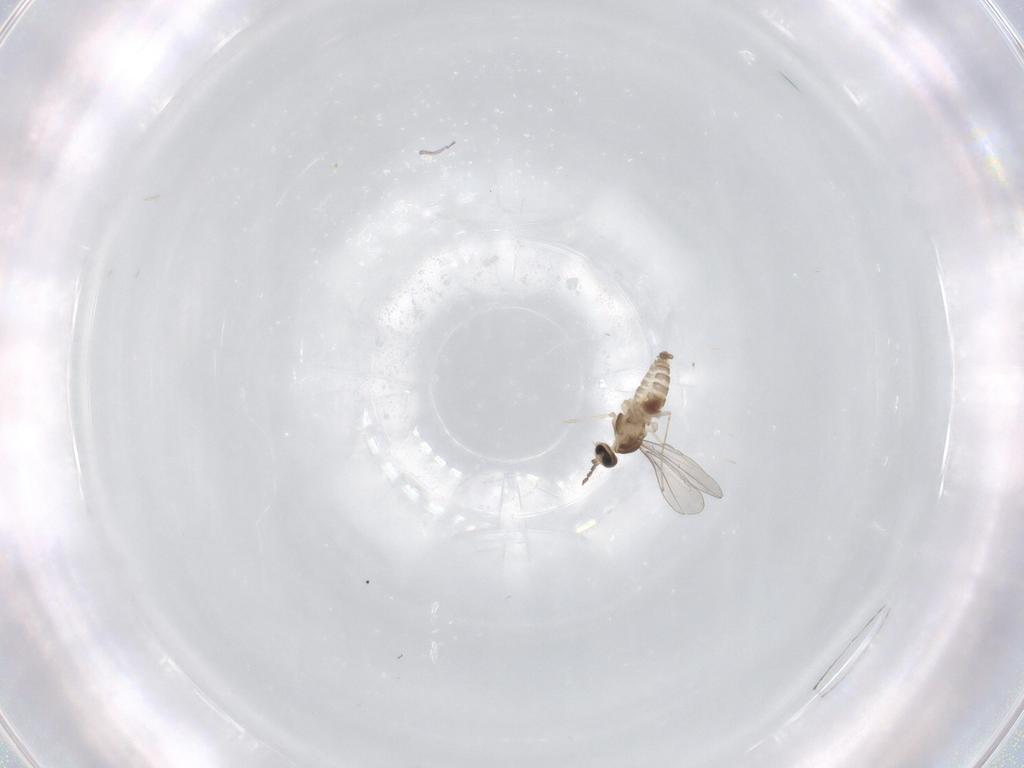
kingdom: Animalia
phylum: Arthropoda
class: Insecta
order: Diptera
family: Cecidomyiidae
